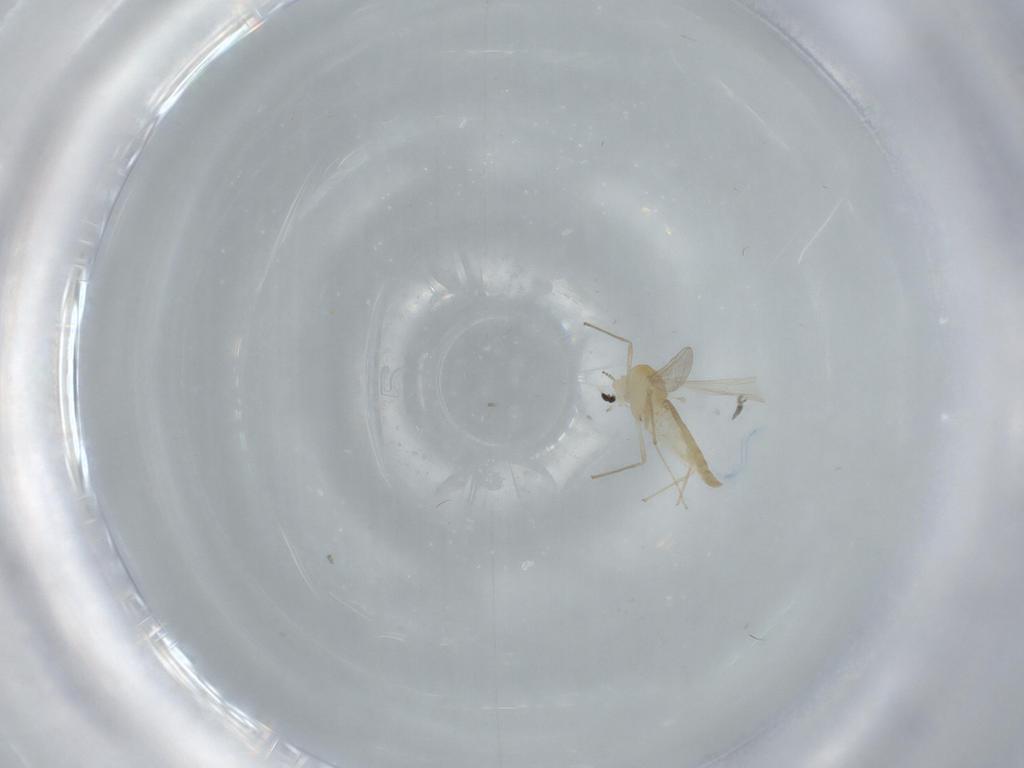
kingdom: Animalia
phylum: Arthropoda
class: Insecta
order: Diptera
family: Chironomidae
